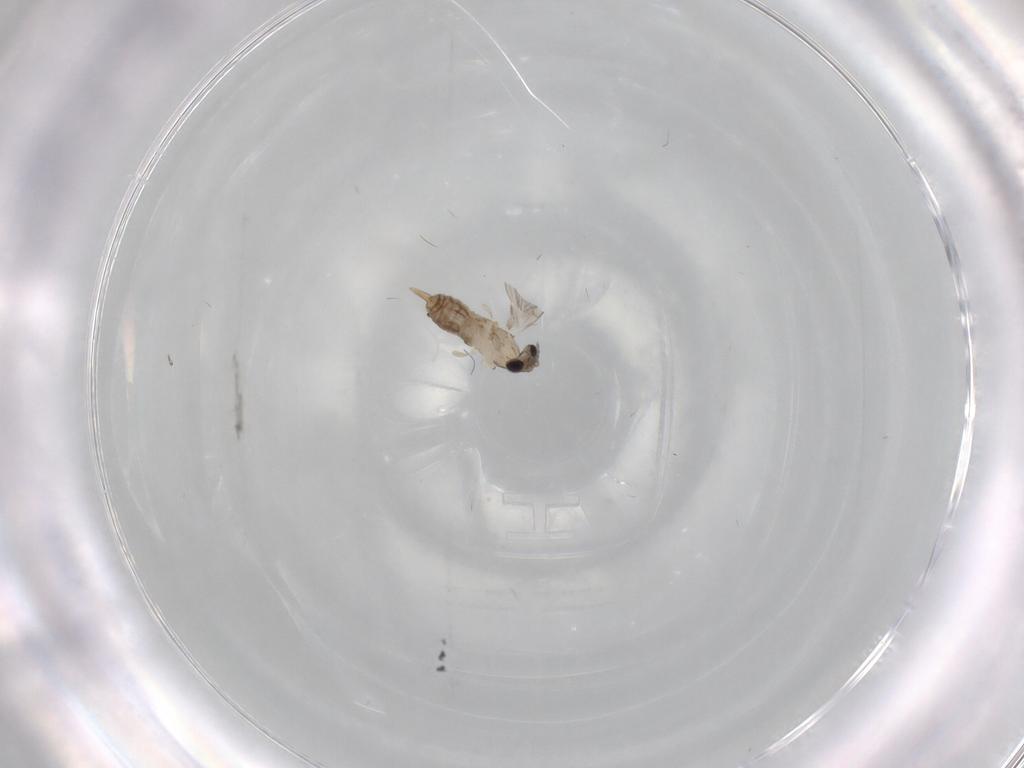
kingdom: Animalia
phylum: Arthropoda
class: Insecta
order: Diptera
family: Psychodidae
